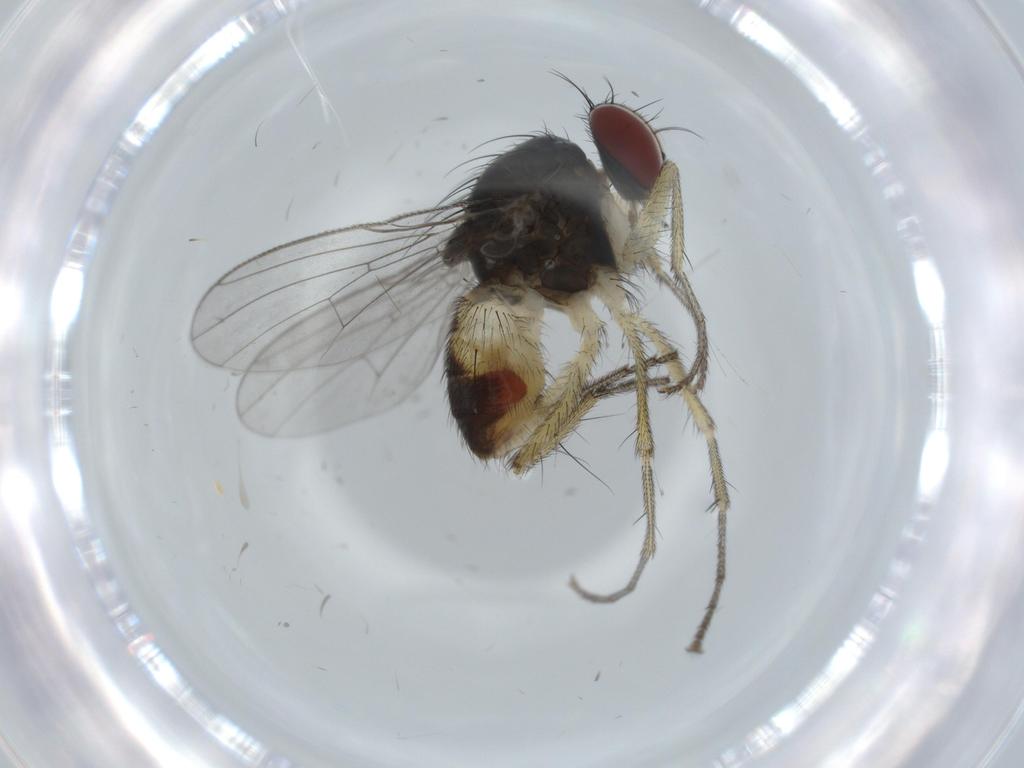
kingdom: Animalia
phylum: Arthropoda
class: Insecta
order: Diptera
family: Muscidae
